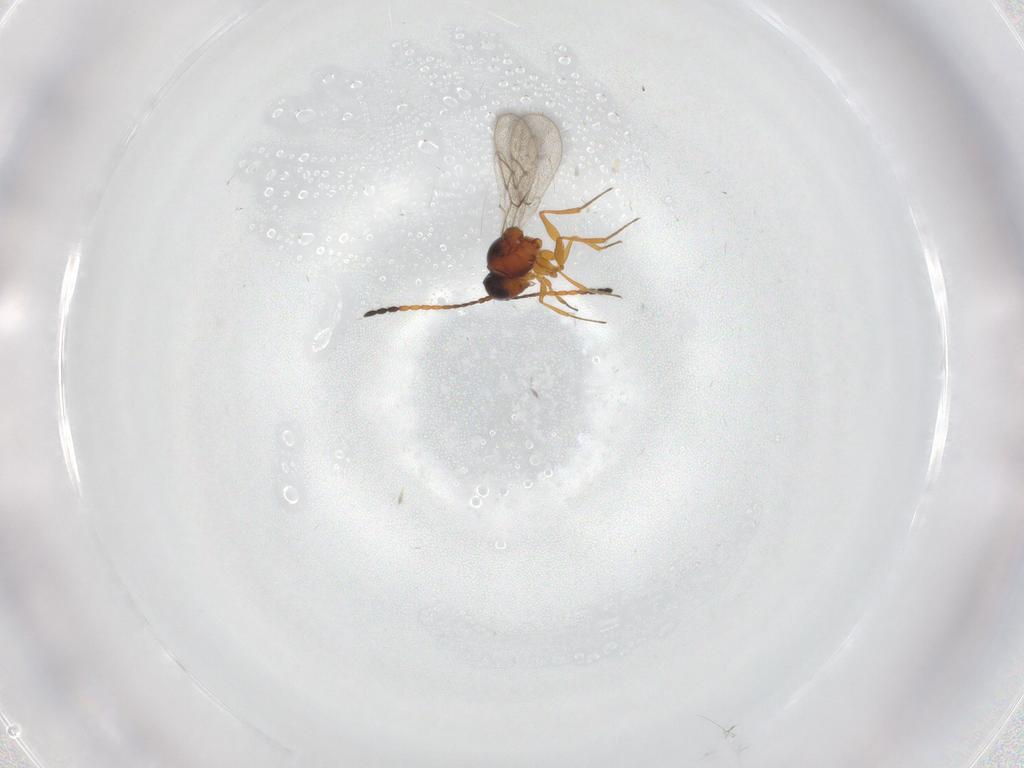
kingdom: Animalia
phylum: Arthropoda
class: Insecta
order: Hymenoptera
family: Figitidae
